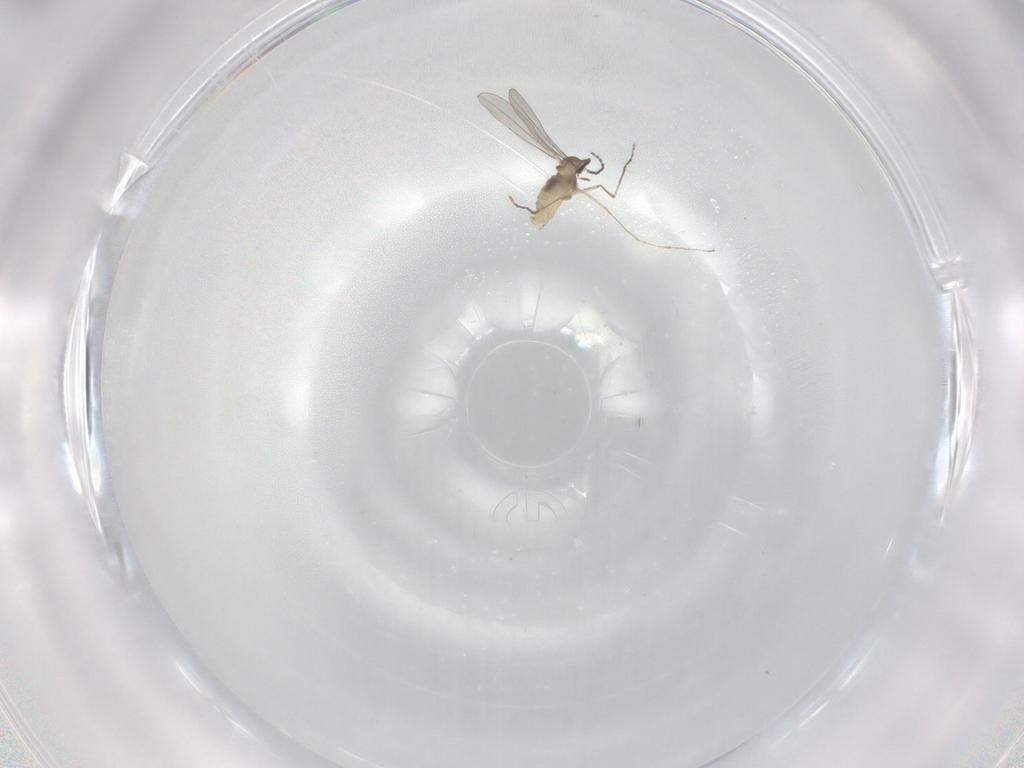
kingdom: Animalia
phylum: Arthropoda
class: Insecta
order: Diptera
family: Cecidomyiidae
